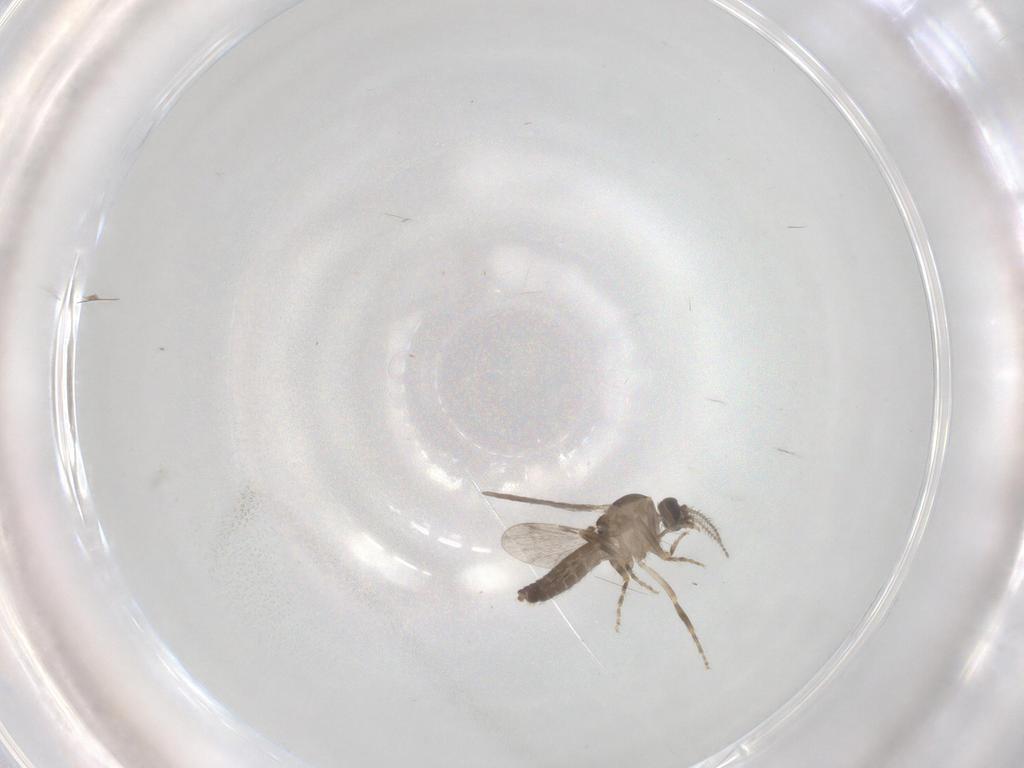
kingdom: Animalia
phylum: Arthropoda
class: Insecta
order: Diptera
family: Ceratopogonidae
